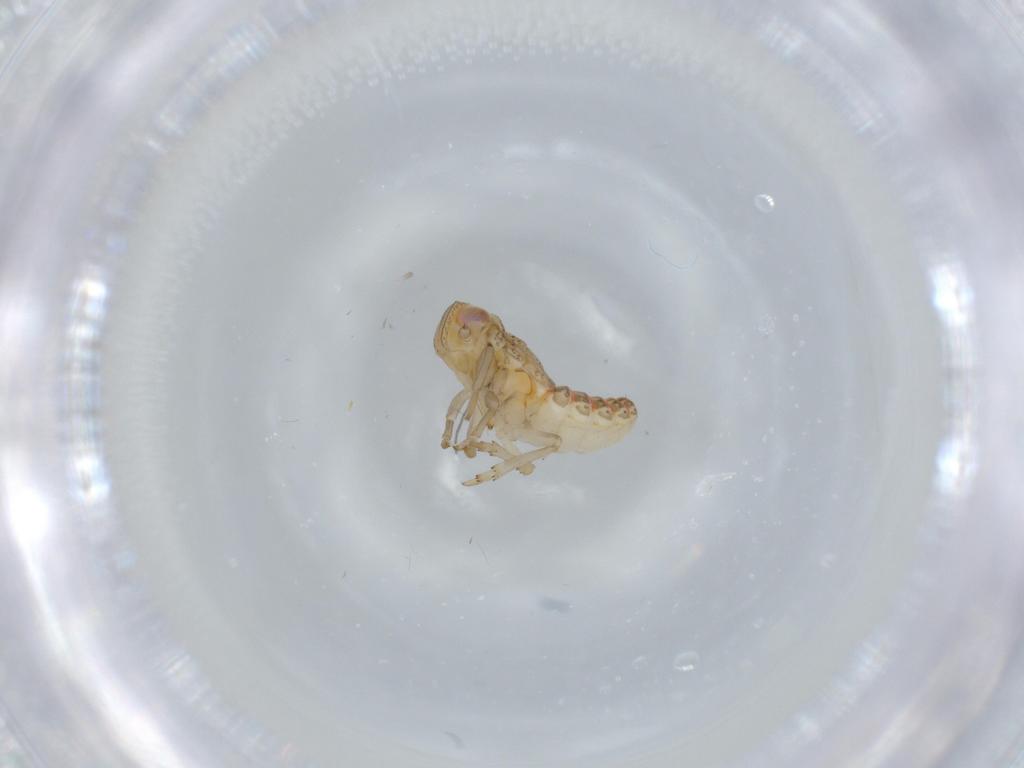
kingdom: Animalia
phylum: Arthropoda
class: Insecta
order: Hemiptera
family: Issidae
